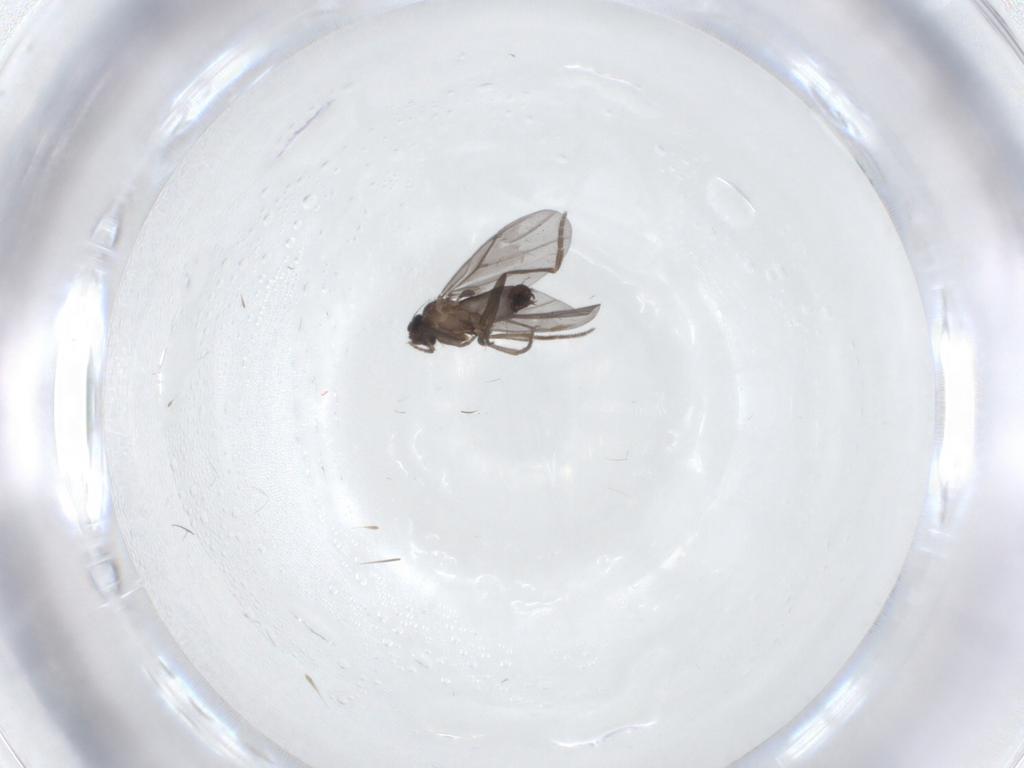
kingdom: Animalia
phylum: Arthropoda
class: Insecta
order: Diptera
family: Phoridae
